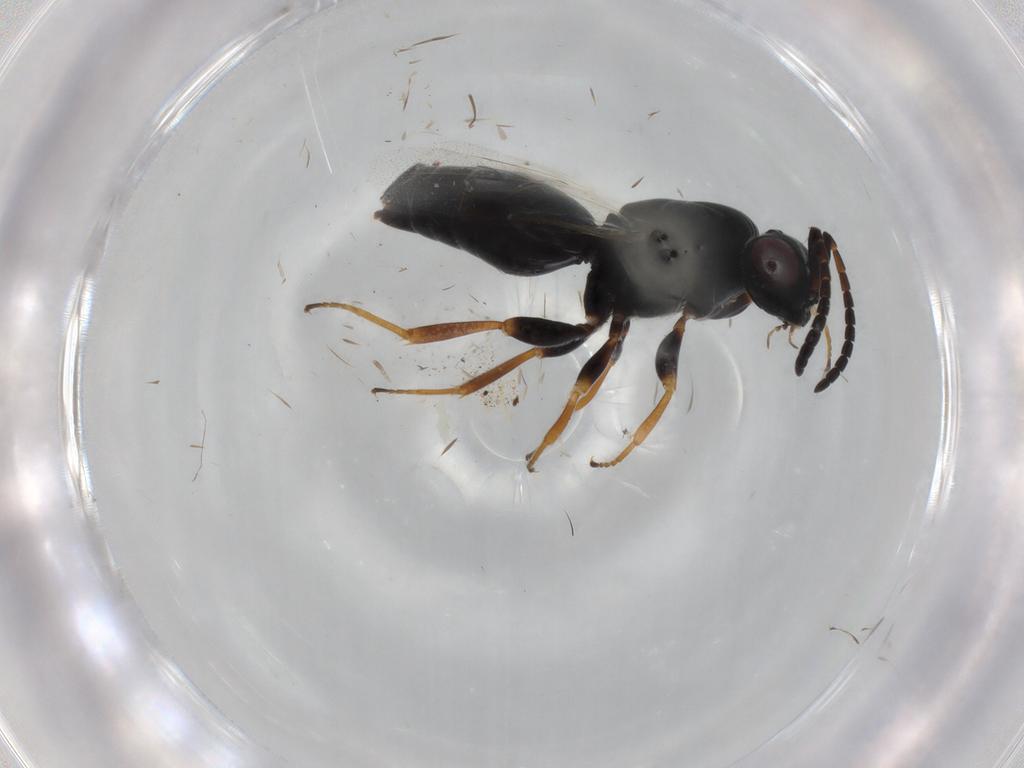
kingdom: Animalia
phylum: Arthropoda
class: Insecta
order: Hymenoptera
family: Megaspilidae
